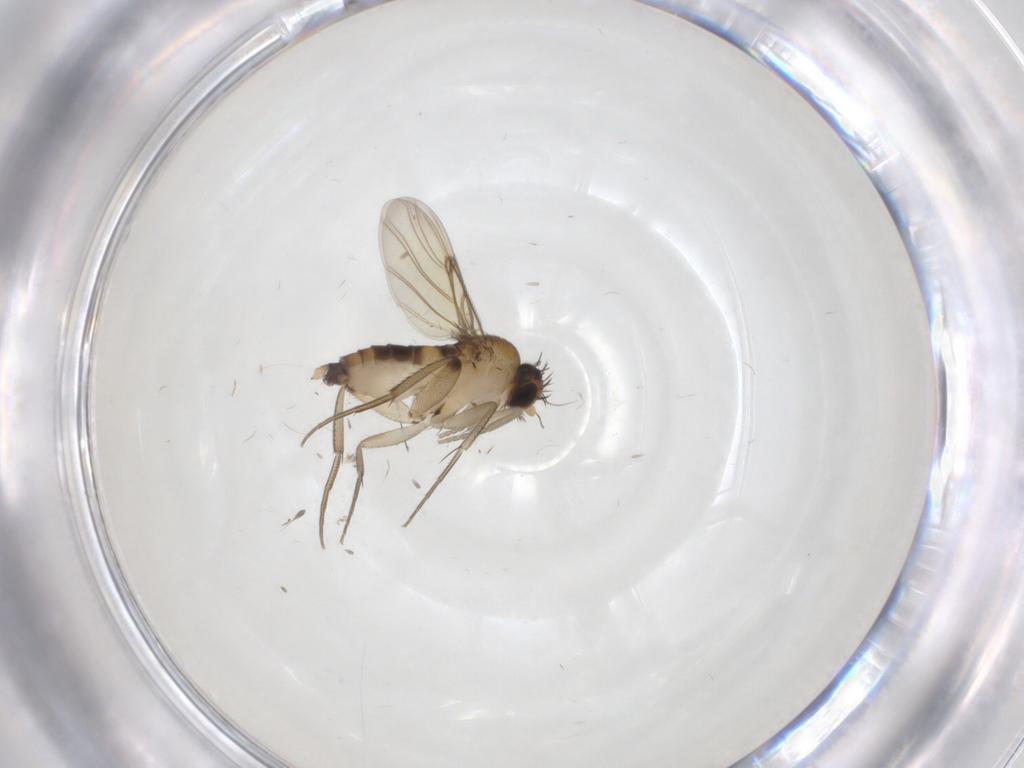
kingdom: Animalia
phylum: Arthropoda
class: Insecta
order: Diptera
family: Phoridae
